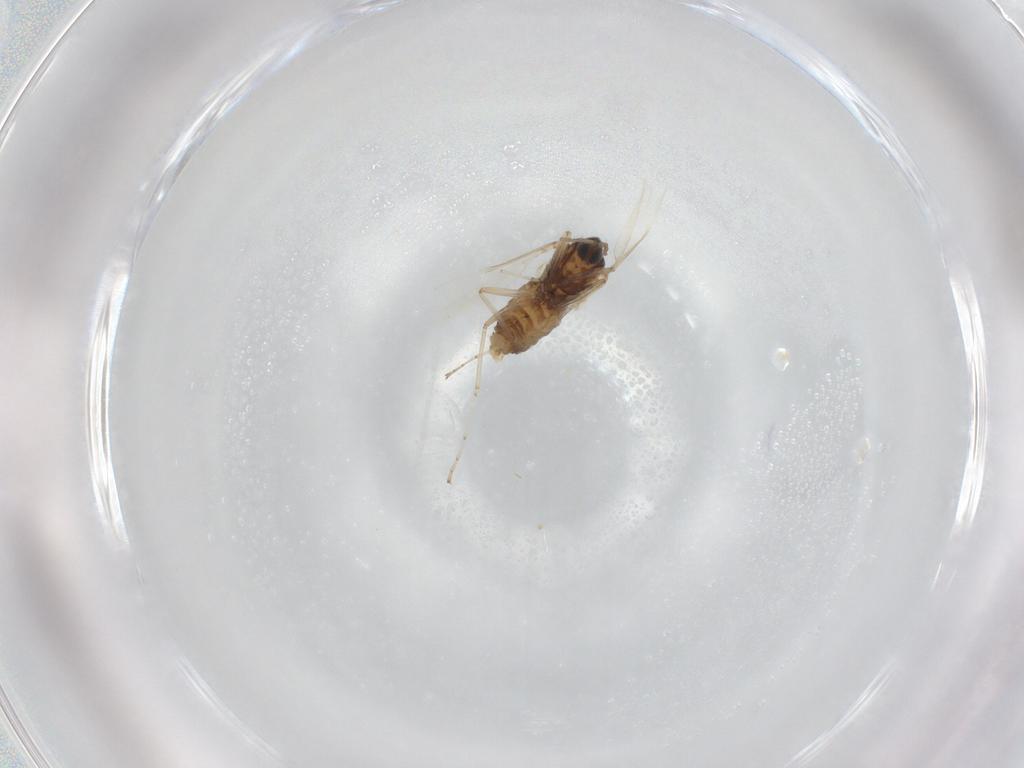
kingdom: Animalia
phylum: Arthropoda
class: Insecta
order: Diptera
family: Cecidomyiidae
